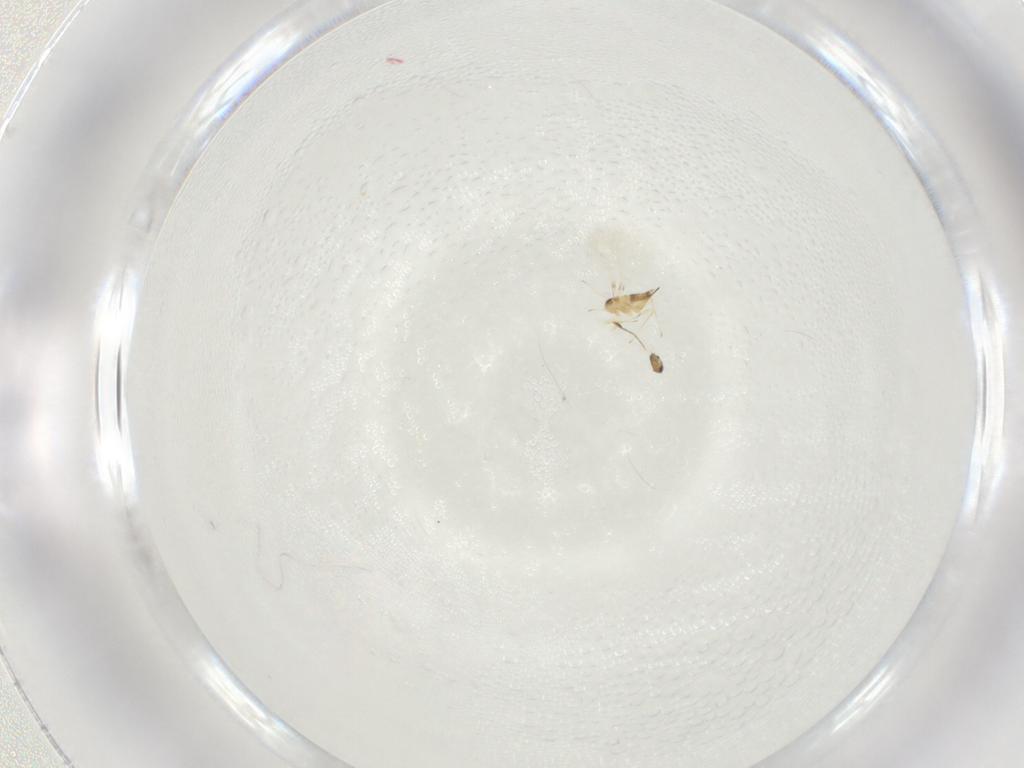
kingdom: Animalia
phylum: Arthropoda
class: Insecta
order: Hymenoptera
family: Mymaridae
